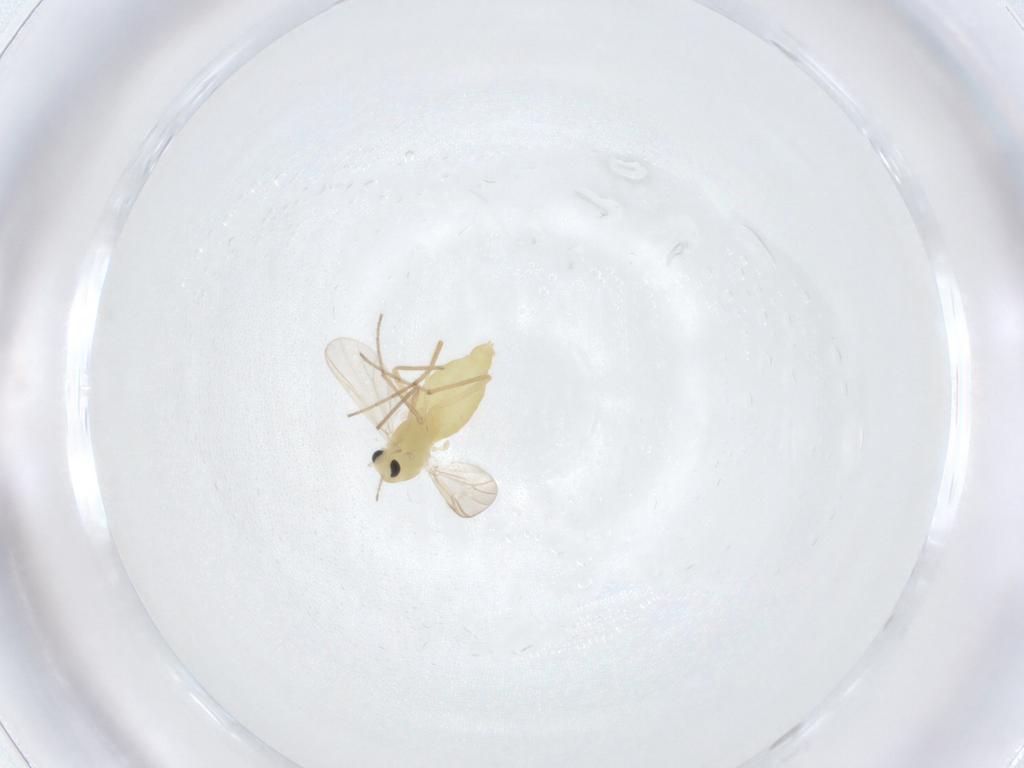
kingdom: Animalia
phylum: Arthropoda
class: Insecta
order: Diptera
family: Chironomidae
